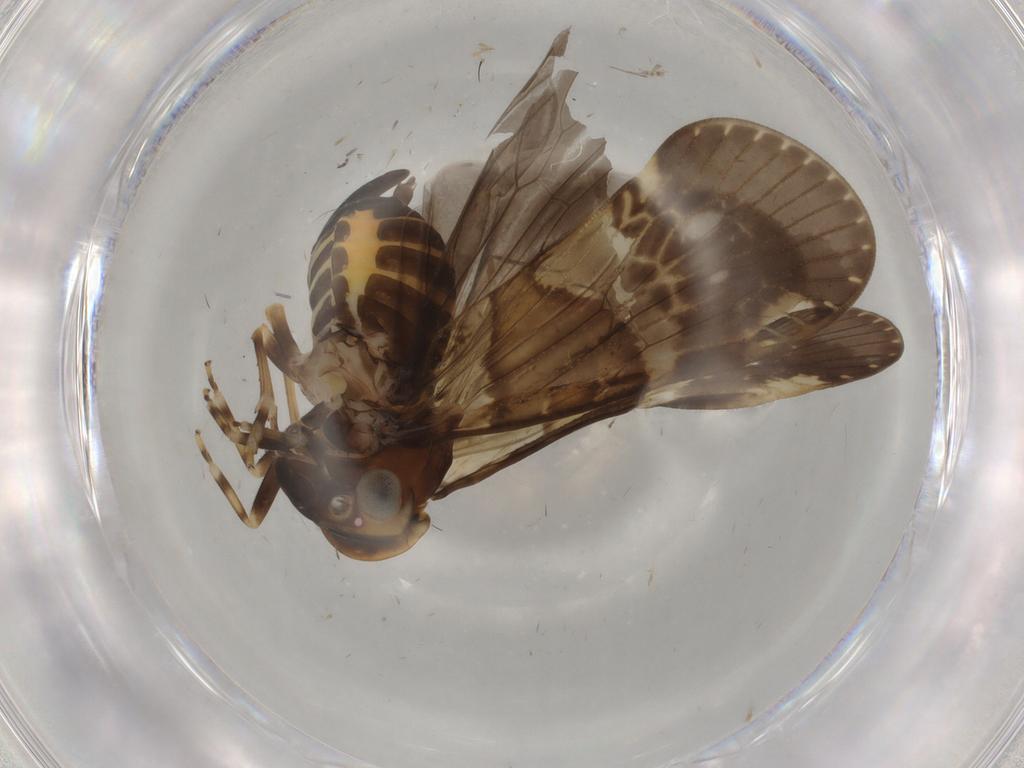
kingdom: Animalia
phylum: Arthropoda
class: Insecta
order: Hemiptera
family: Cixiidae
